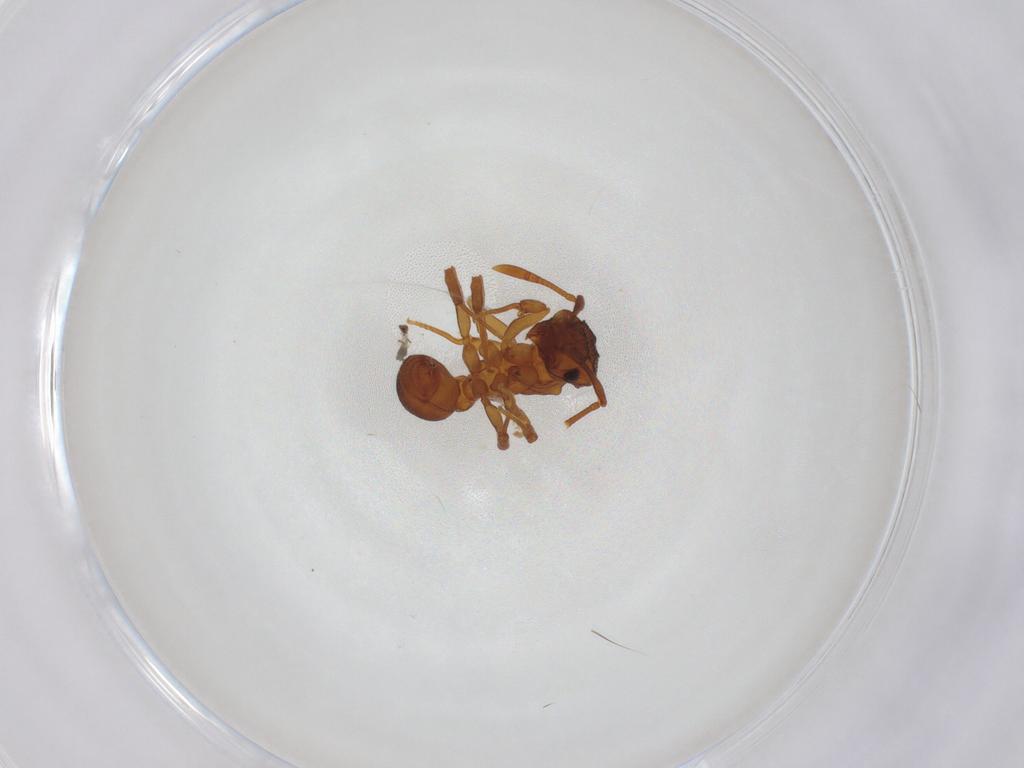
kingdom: Animalia
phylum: Arthropoda
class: Insecta
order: Hymenoptera
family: Formicidae
